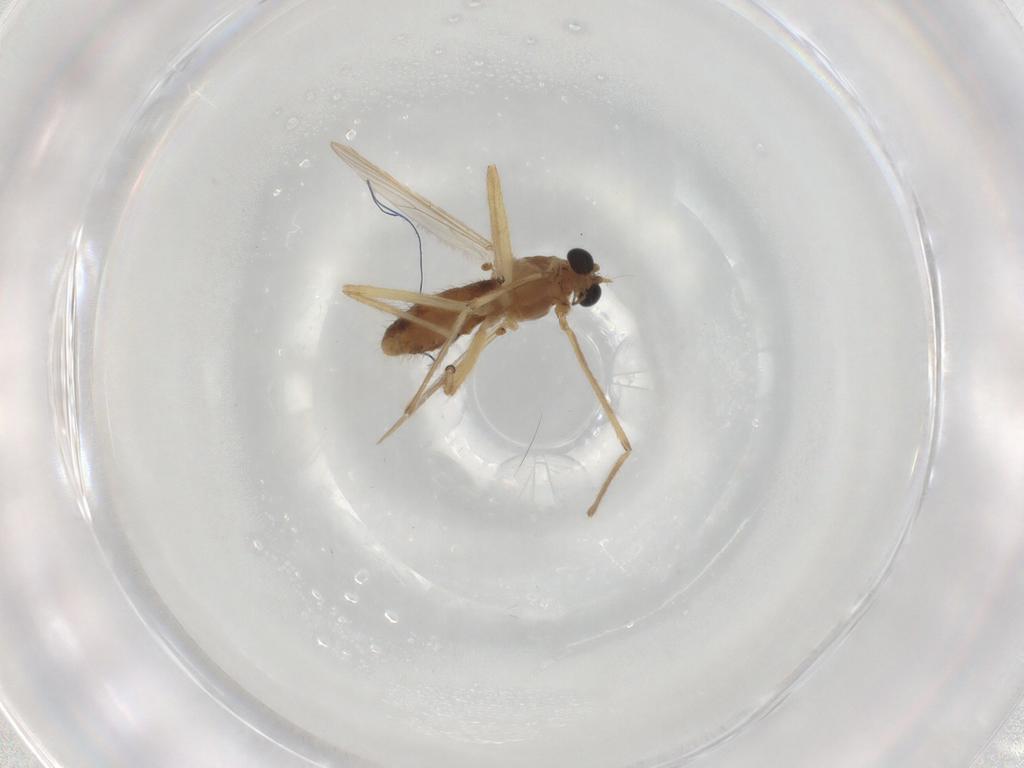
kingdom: Animalia
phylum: Arthropoda
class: Insecta
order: Diptera
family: Chironomidae
